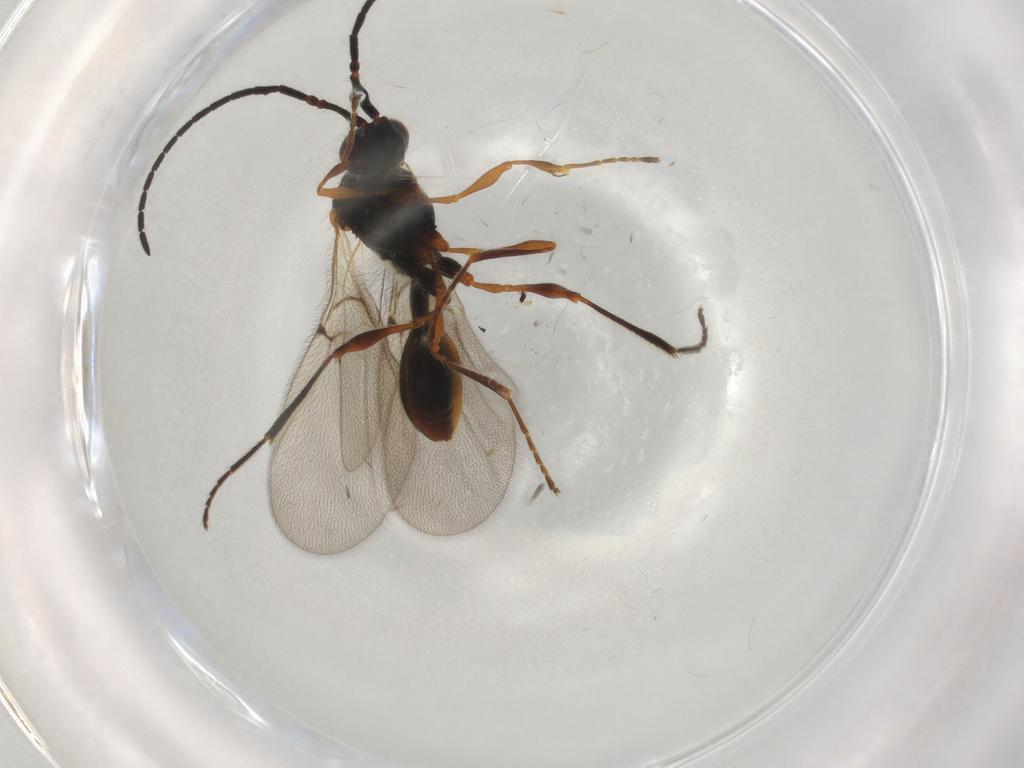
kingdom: Animalia
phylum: Arthropoda
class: Insecta
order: Hymenoptera
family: Diapriidae
